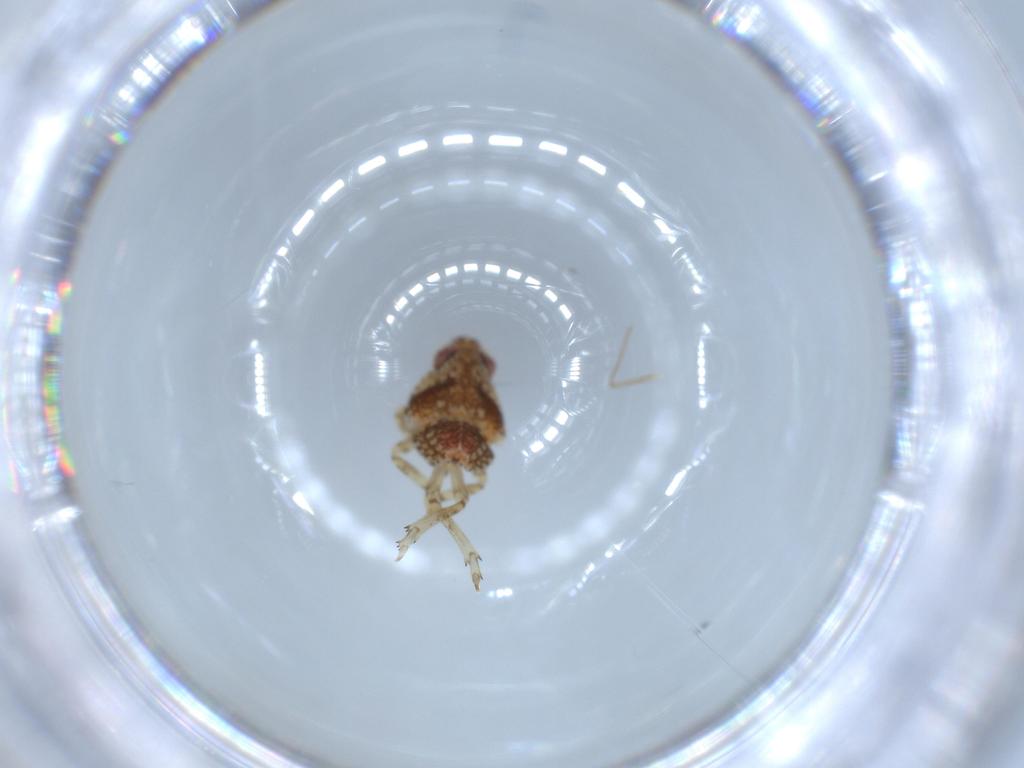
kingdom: Animalia
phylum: Arthropoda
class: Insecta
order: Hemiptera
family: Issidae
